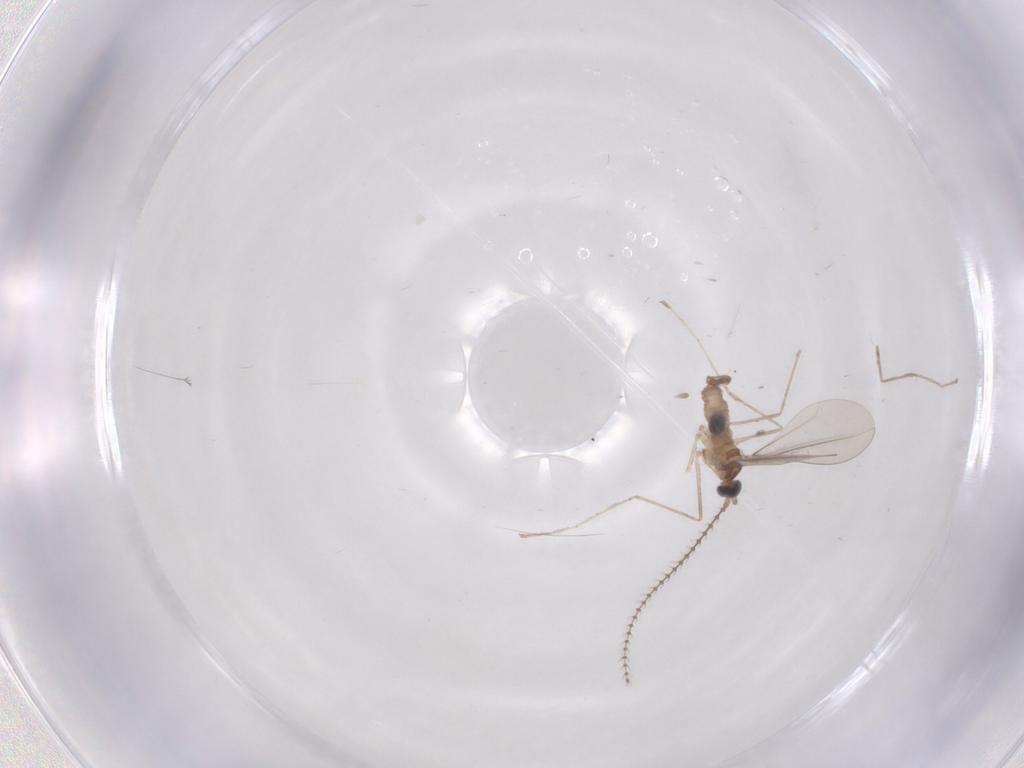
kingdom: Animalia
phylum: Arthropoda
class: Insecta
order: Diptera
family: Cecidomyiidae
